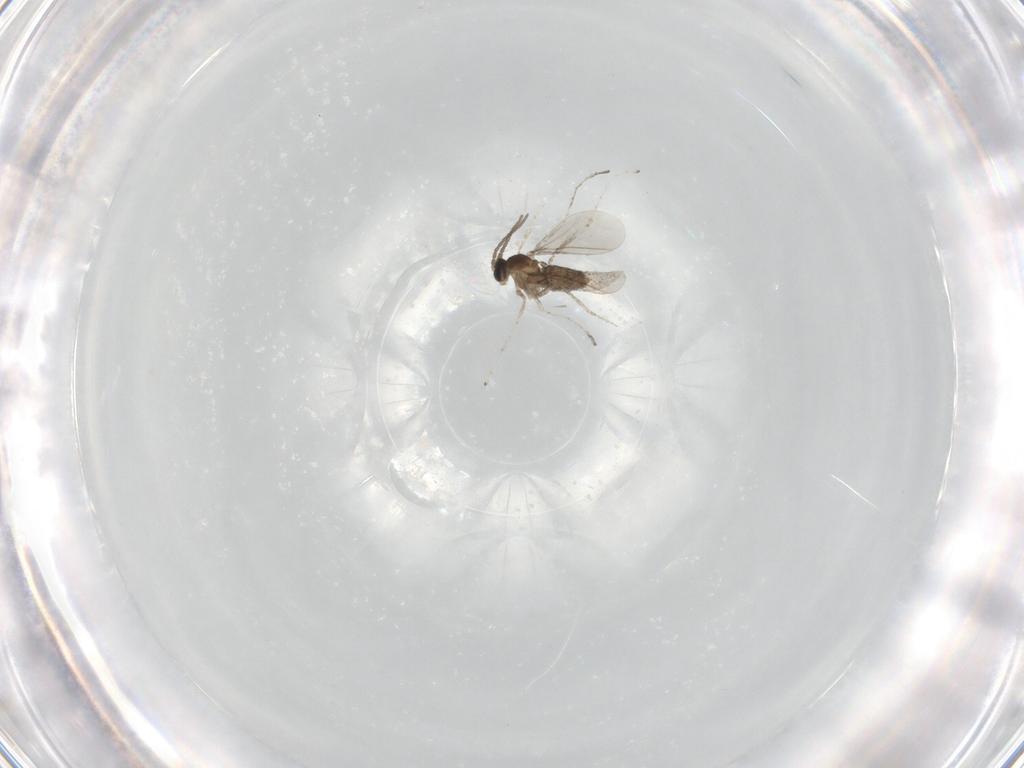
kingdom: Animalia
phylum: Arthropoda
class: Insecta
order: Diptera
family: Cecidomyiidae
